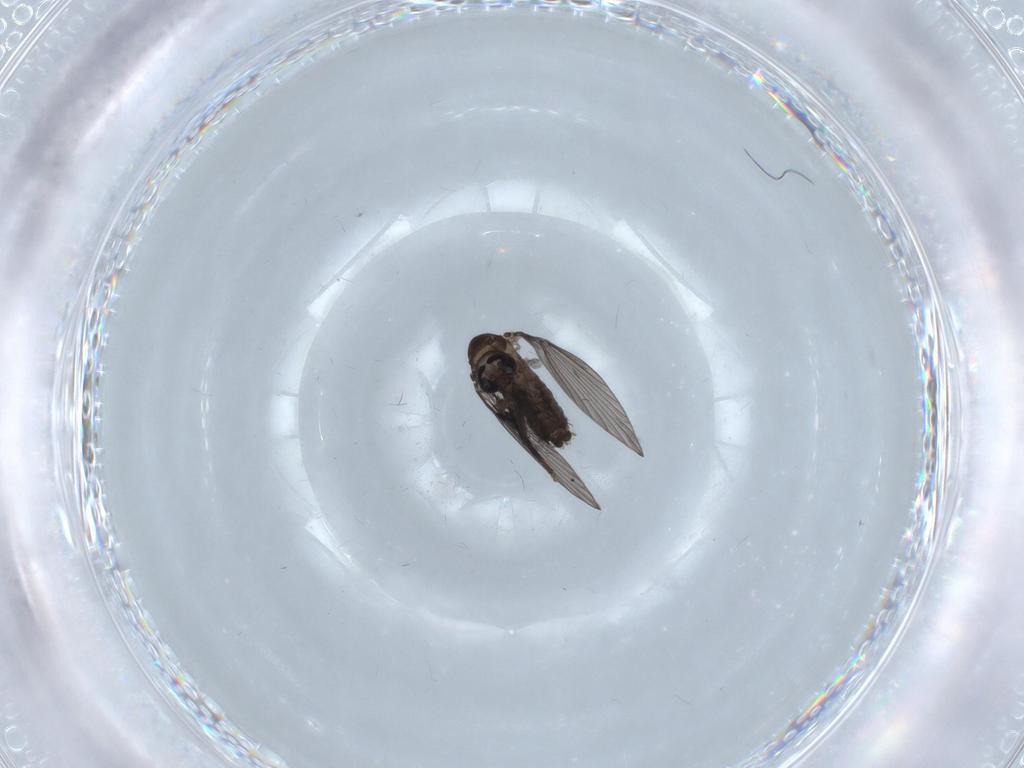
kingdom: Animalia
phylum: Arthropoda
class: Insecta
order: Diptera
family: Psychodidae
